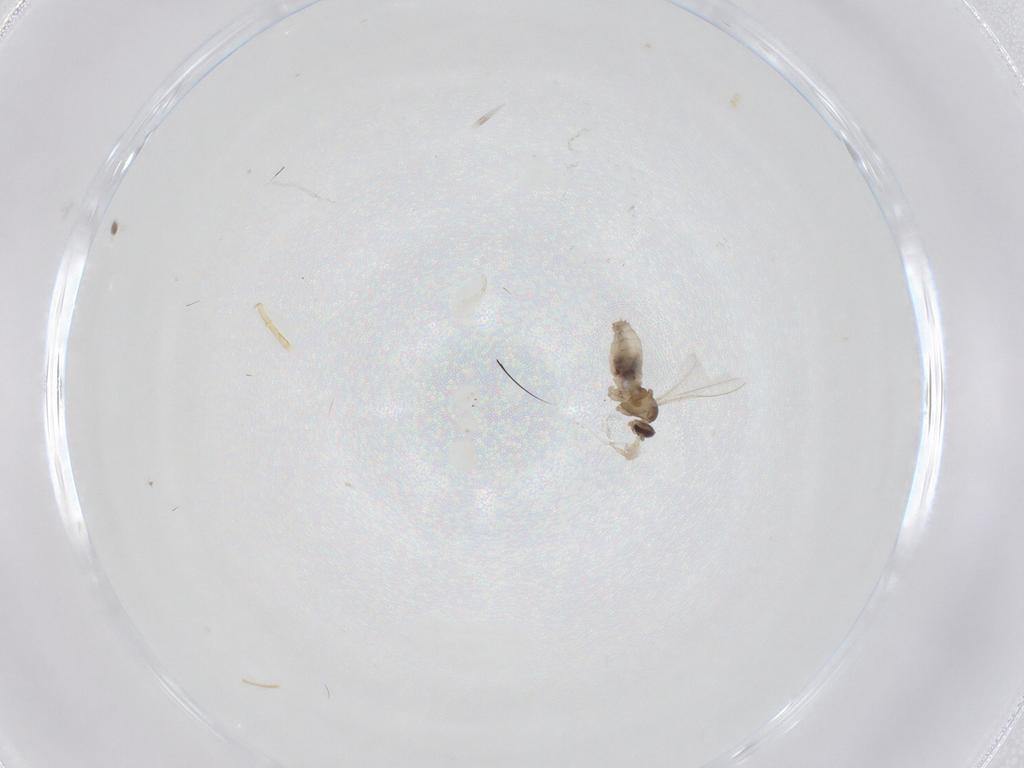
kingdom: Animalia
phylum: Arthropoda
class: Insecta
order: Diptera
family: Cecidomyiidae
